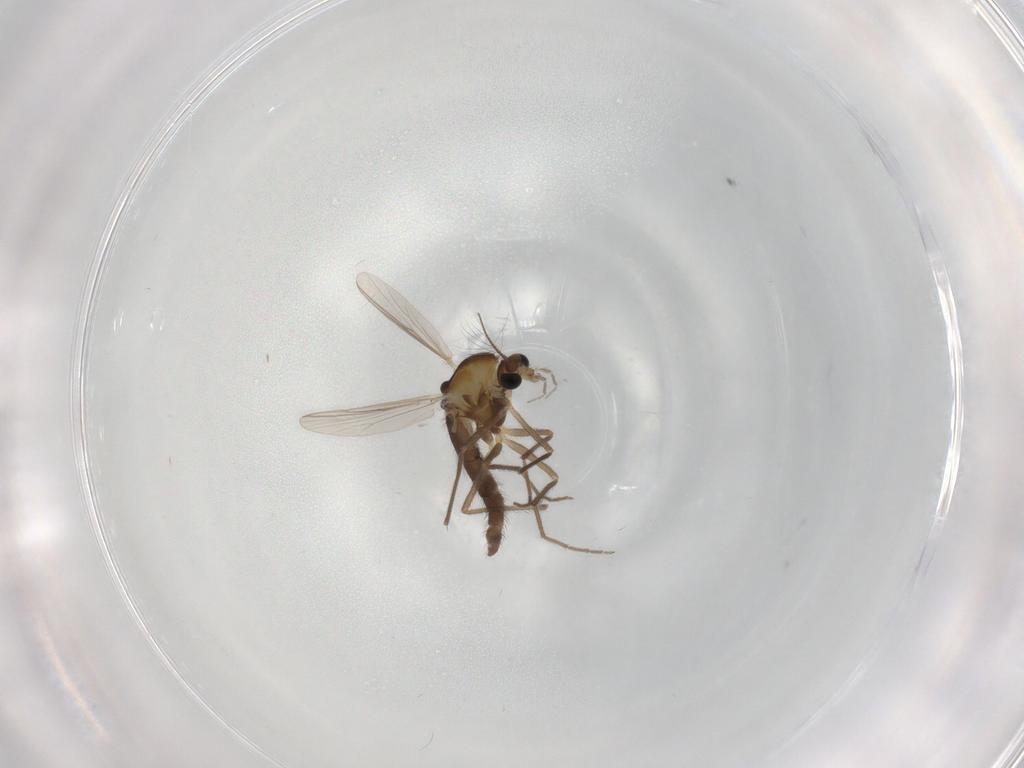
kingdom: Animalia
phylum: Arthropoda
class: Insecta
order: Diptera
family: Chironomidae
